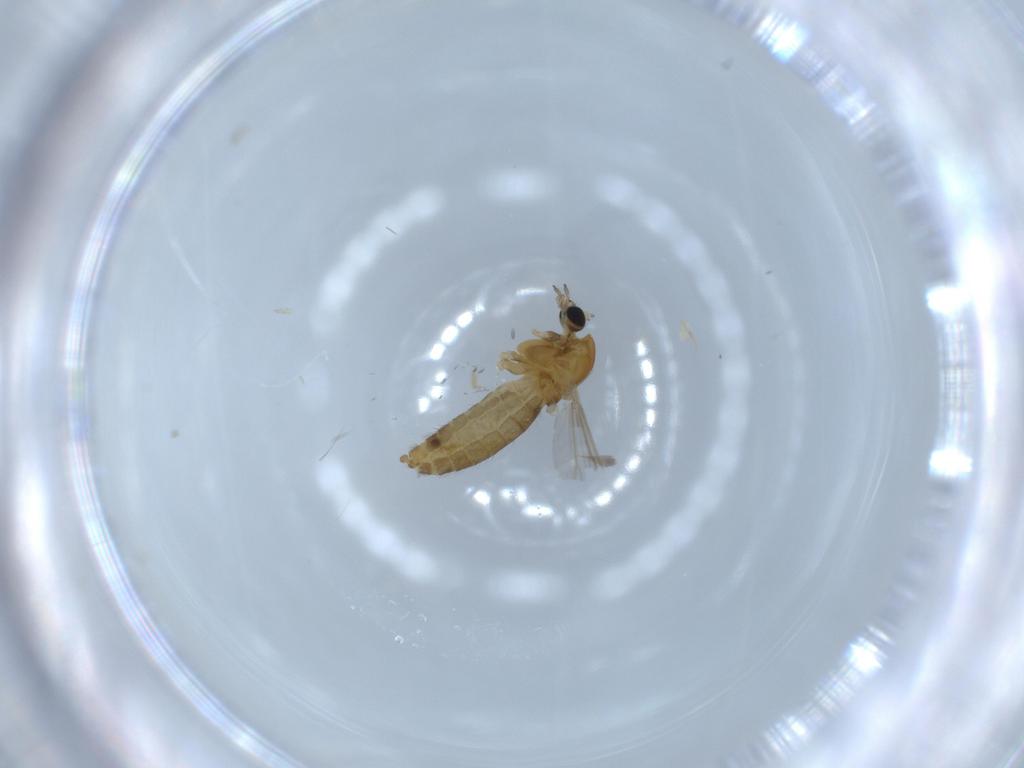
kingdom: Animalia
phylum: Arthropoda
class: Insecta
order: Diptera
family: Chironomidae
